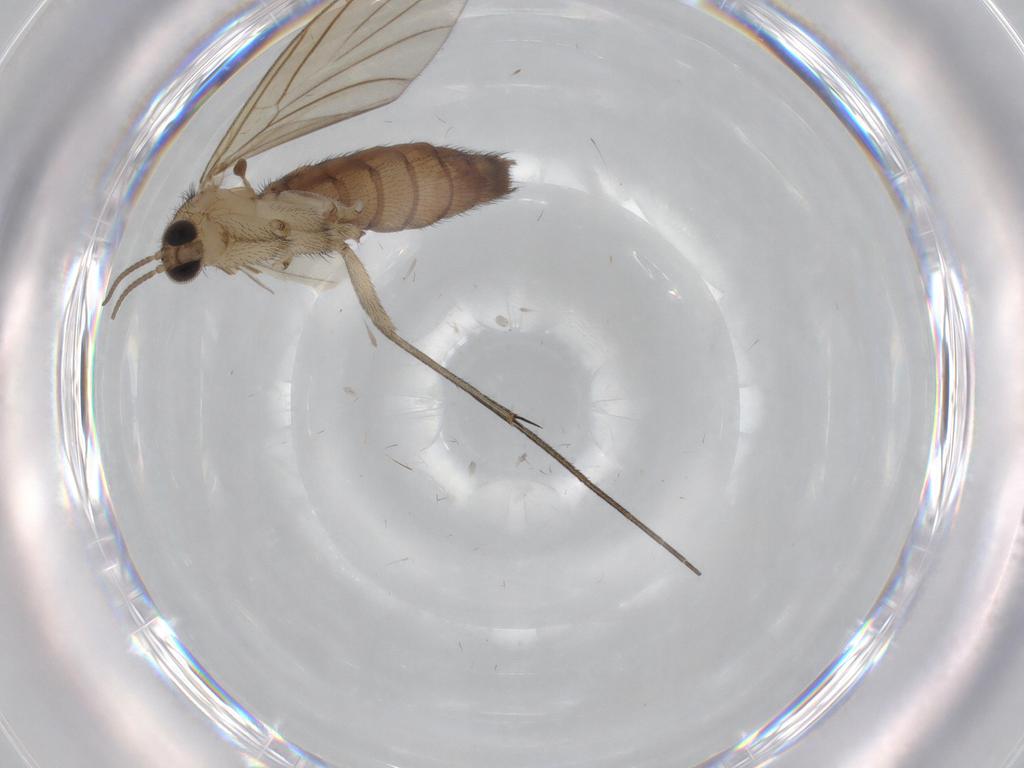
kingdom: Animalia
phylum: Arthropoda
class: Insecta
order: Diptera
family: Keroplatidae
